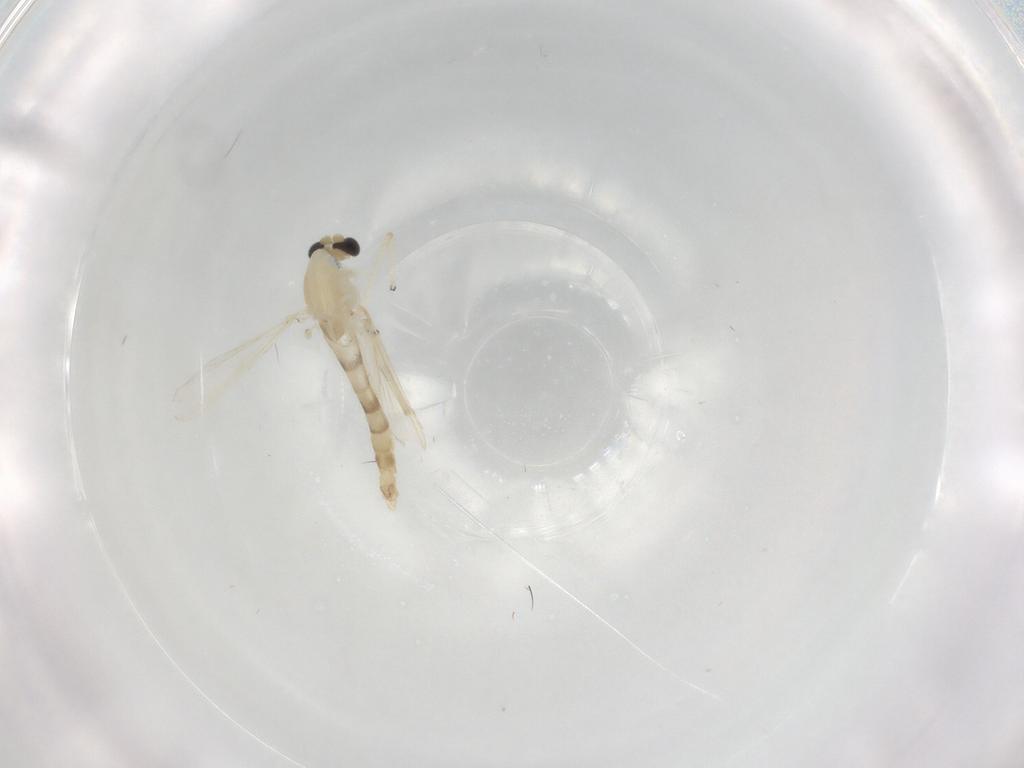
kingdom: Animalia
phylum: Arthropoda
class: Insecta
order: Diptera
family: Chironomidae
